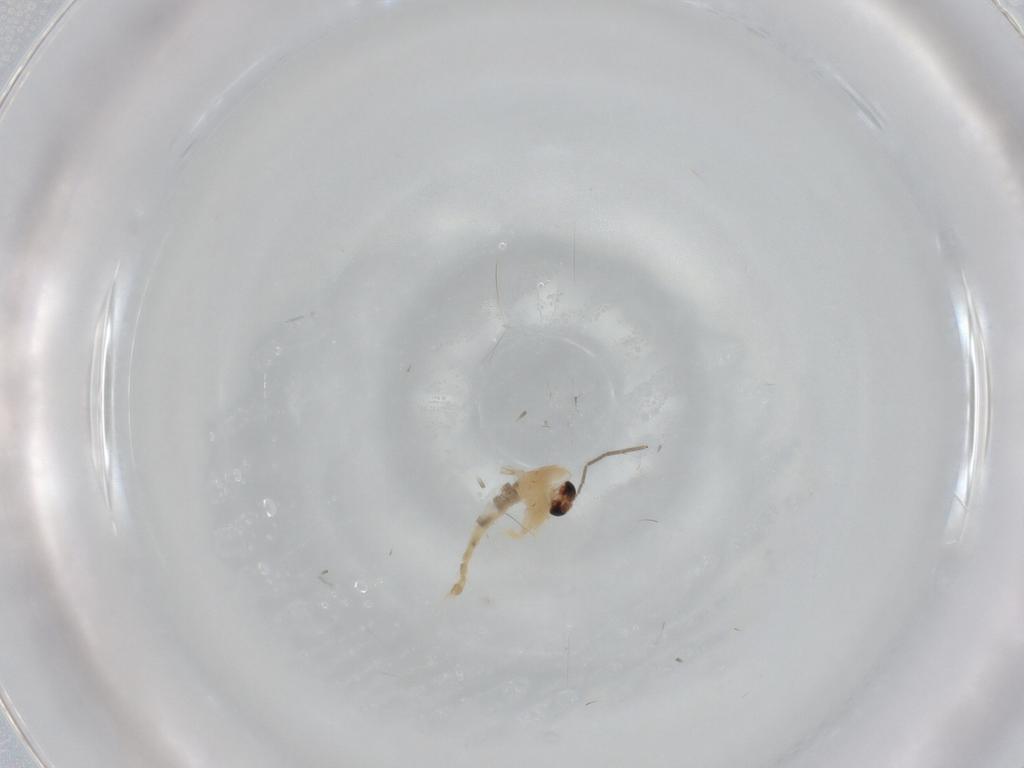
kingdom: Animalia
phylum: Arthropoda
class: Insecta
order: Diptera
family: Chironomidae
